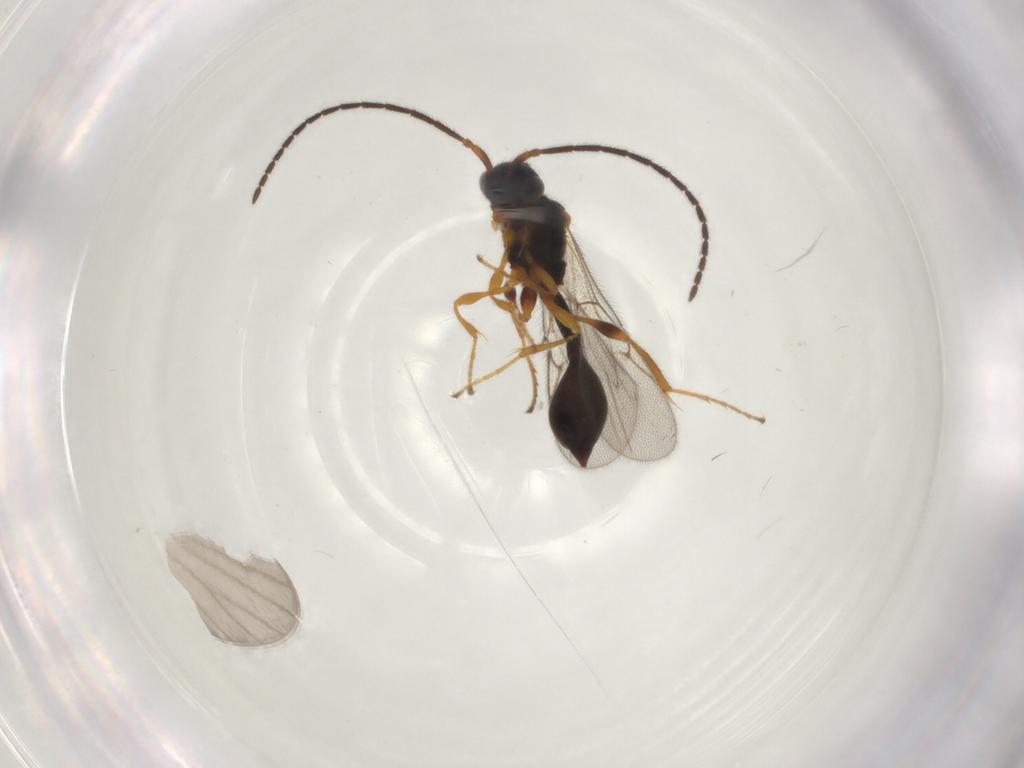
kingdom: Animalia
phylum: Arthropoda
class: Insecta
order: Hymenoptera
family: Diapriidae
